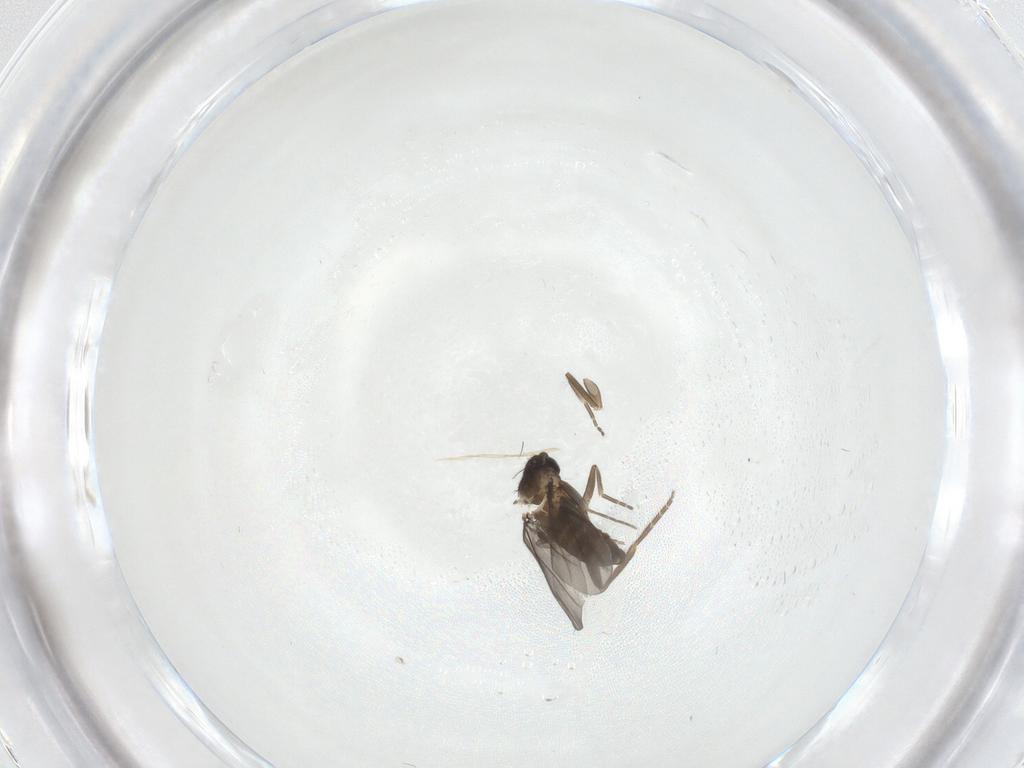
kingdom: Animalia
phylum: Arthropoda
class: Insecta
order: Diptera
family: Phoridae
